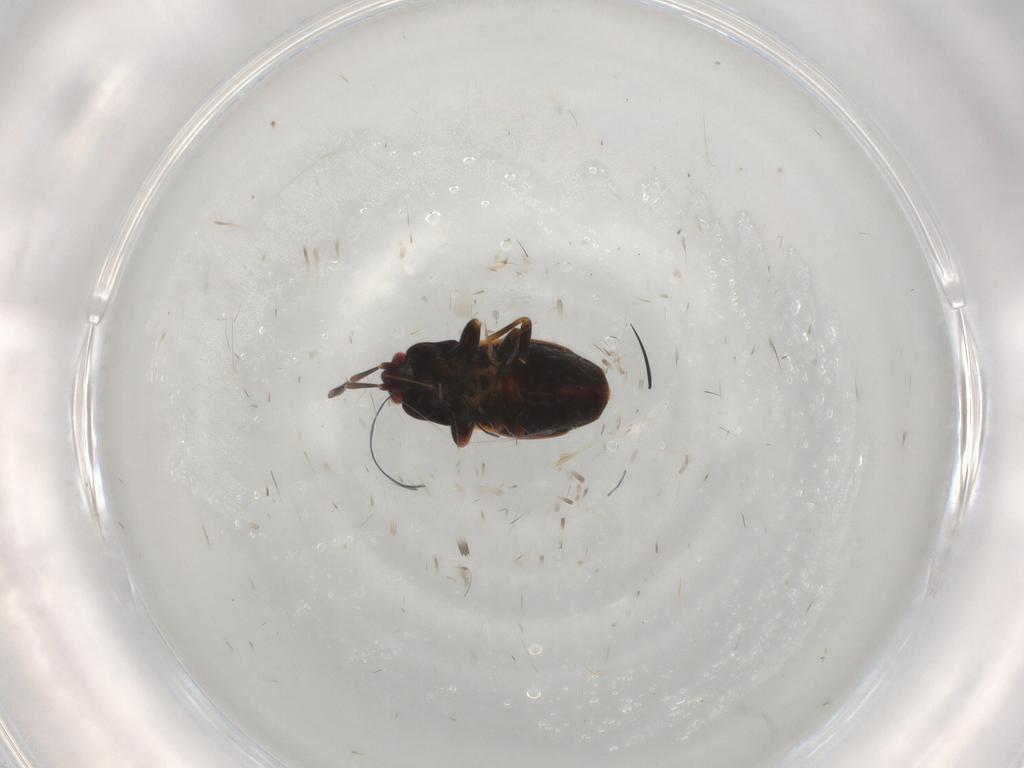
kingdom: Animalia
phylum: Arthropoda
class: Insecta
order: Hemiptera
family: Rhyparochromidae
